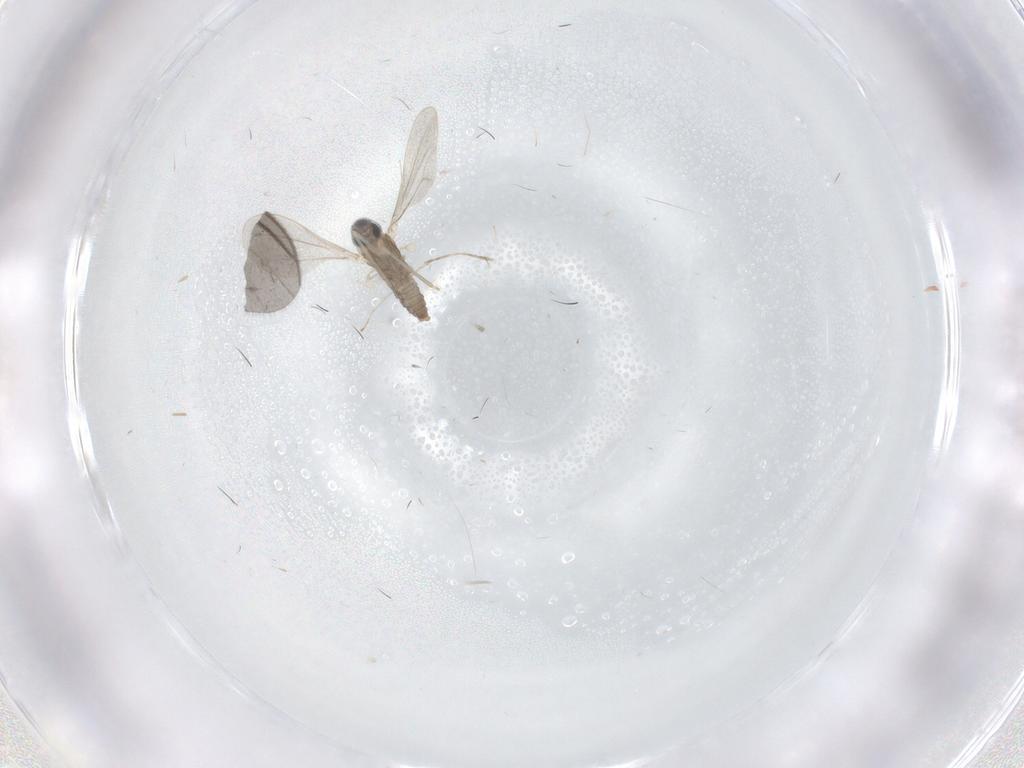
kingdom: Animalia
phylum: Arthropoda
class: Insecta
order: Diptera
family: Cecidomyiidae
